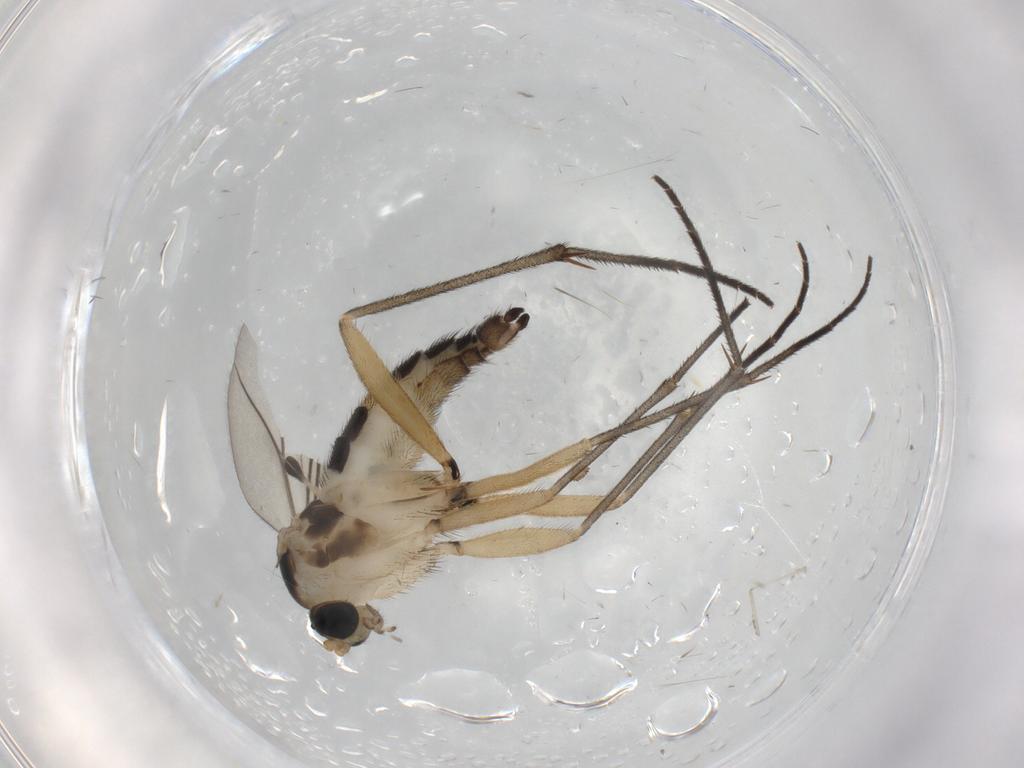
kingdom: Animalia
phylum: Arthropoda
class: Insecta
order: Diptera
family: Sciaridae
